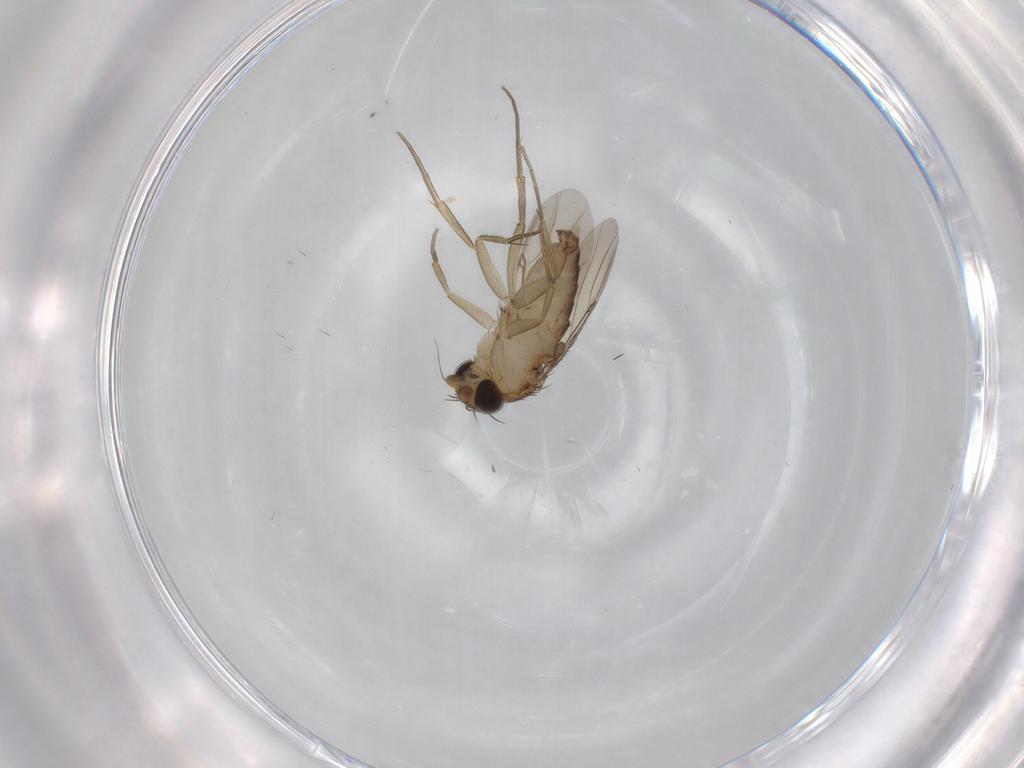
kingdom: Animalia
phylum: Arthropoda
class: Insecta
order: Diptera
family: Phoridae
